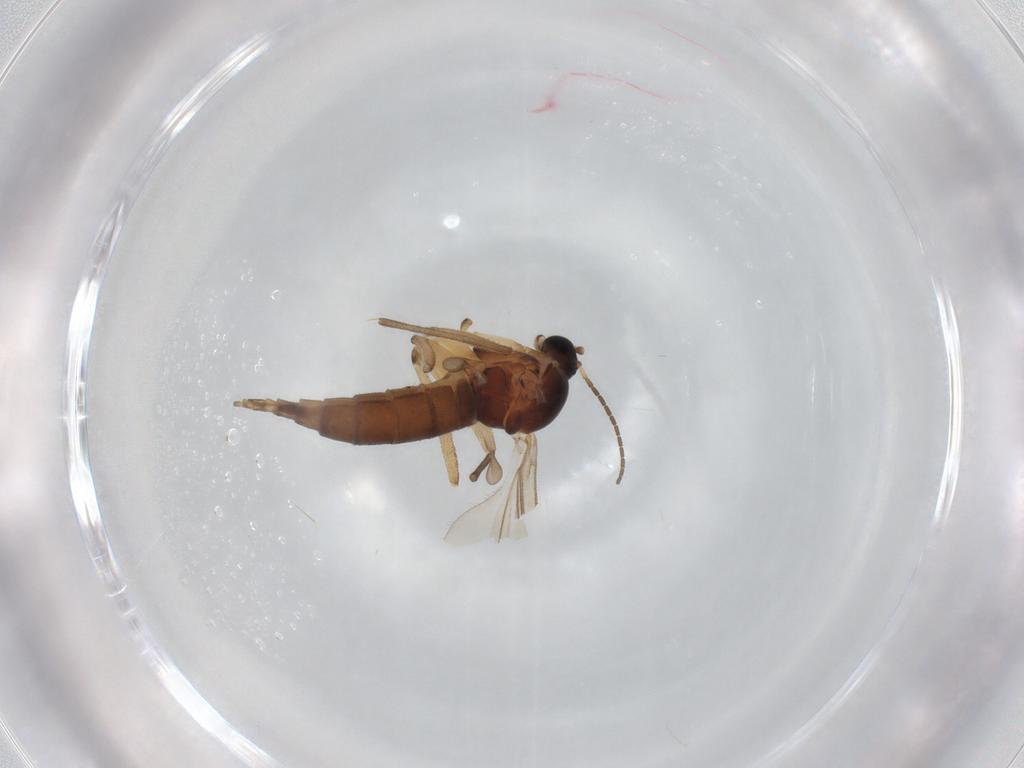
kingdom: Animalia
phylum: Arthropoda
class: Insecta
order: Diptera
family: Sciaridae
